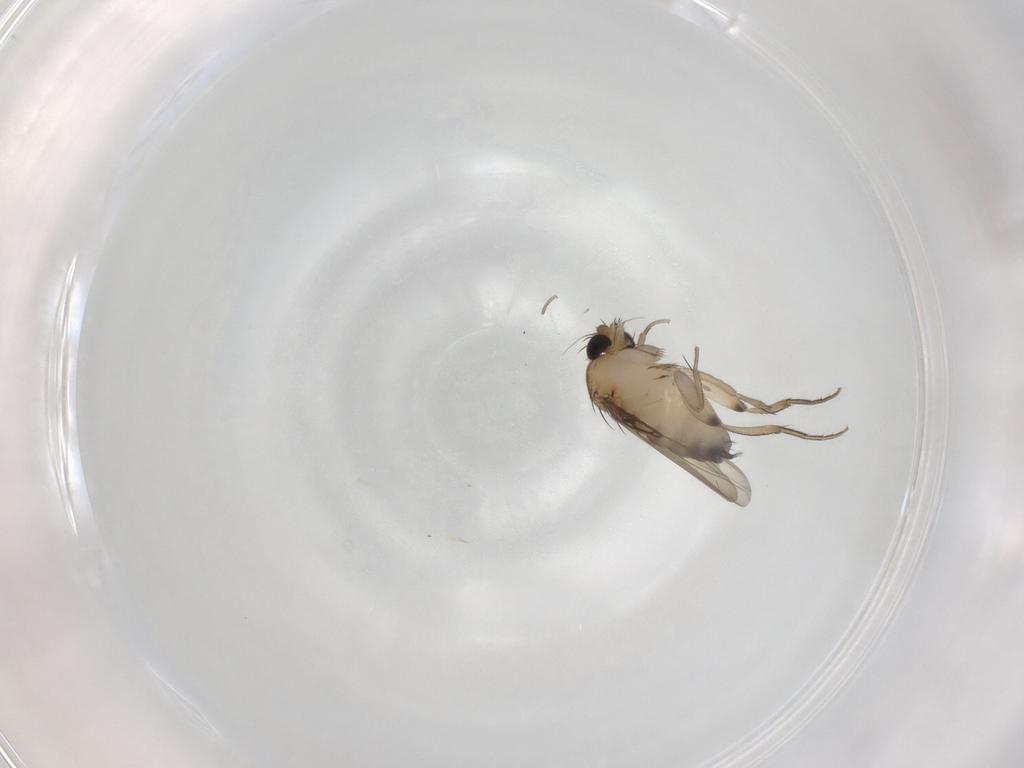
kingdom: Animalia
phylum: Arthropoda
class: Insecta
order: Diptera
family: Phoridae
